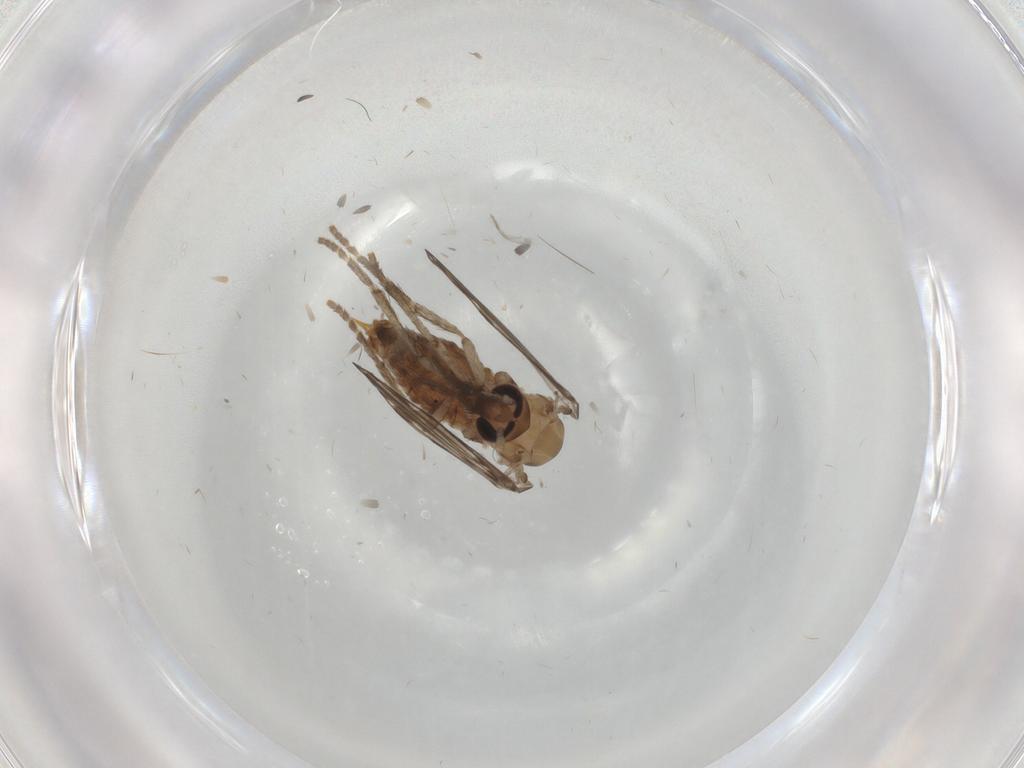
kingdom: Animalia
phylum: Arthropoda
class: Insecta
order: Diptera
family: Psychodidae
